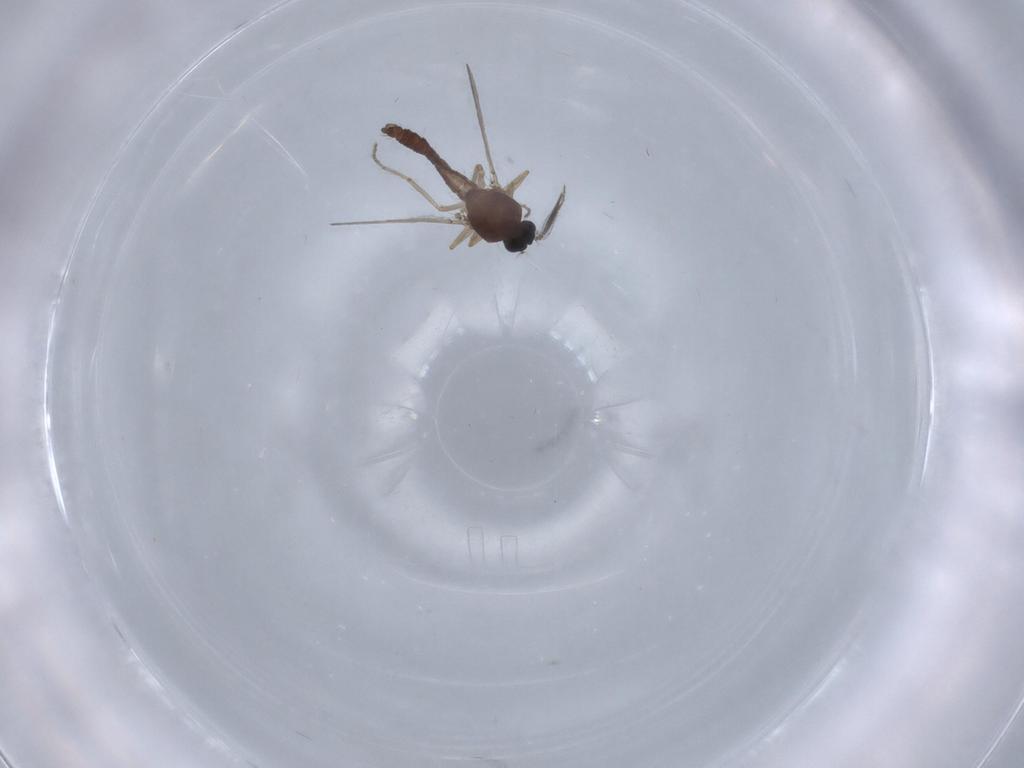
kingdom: Animalia
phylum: Arthropoda
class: Insecta
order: Diptera
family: Ceratopogonidae
